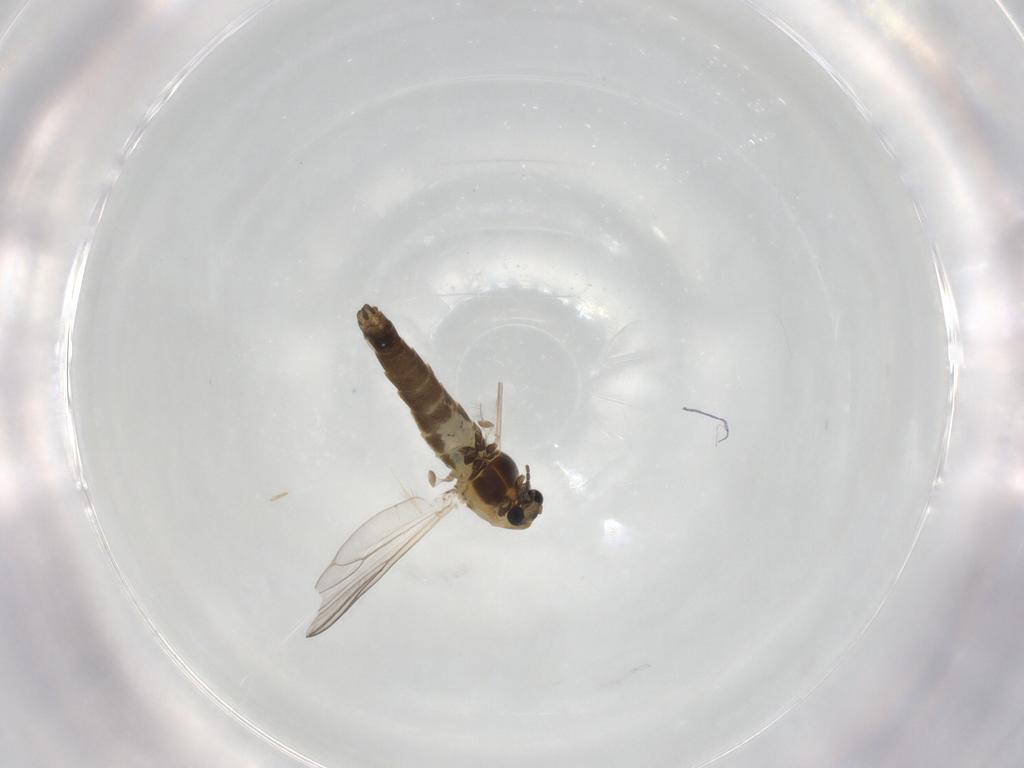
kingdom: Animalia
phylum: Arthropoda
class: Insecta
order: Diptera
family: Chironomidae
